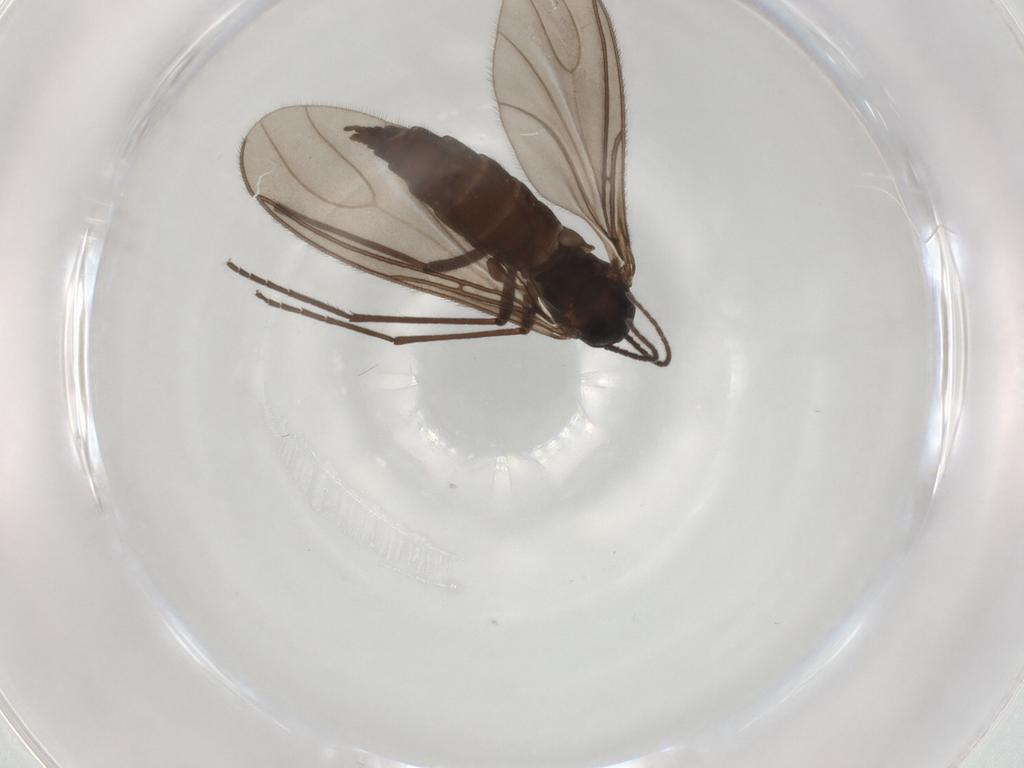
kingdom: Animalia
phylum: Arthropoda
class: Insecta
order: Diptera
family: Sciaridae
